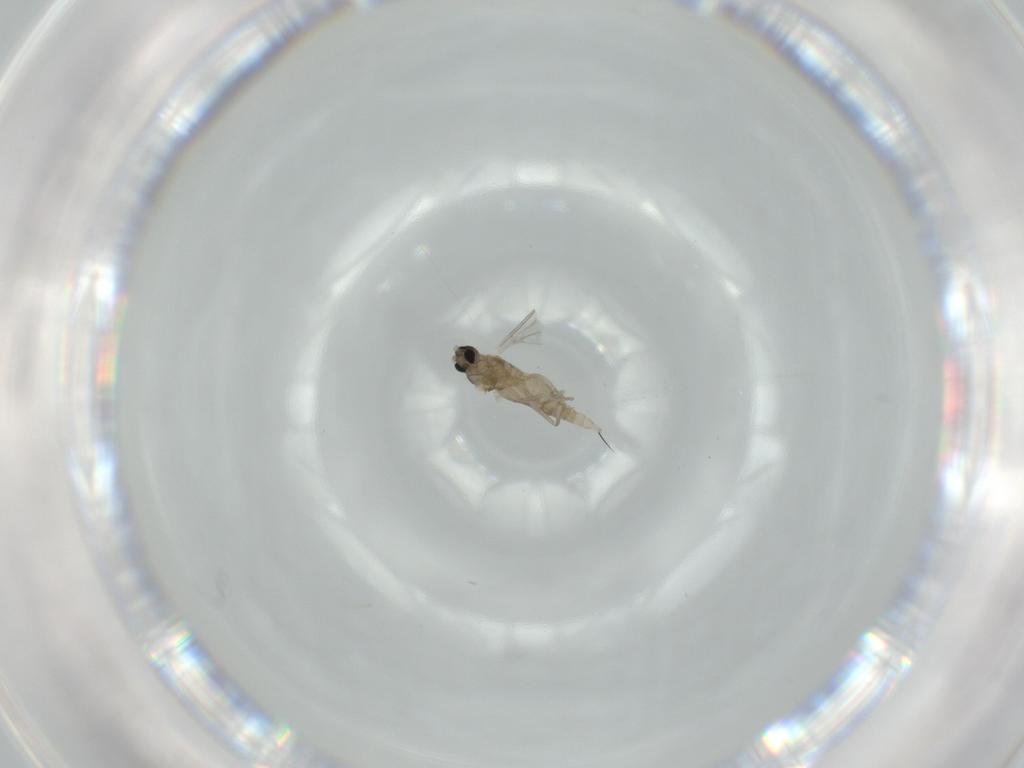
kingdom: Animalia
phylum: Arthropoda
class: Insecta
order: Diptera
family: Cecidomyiidae
